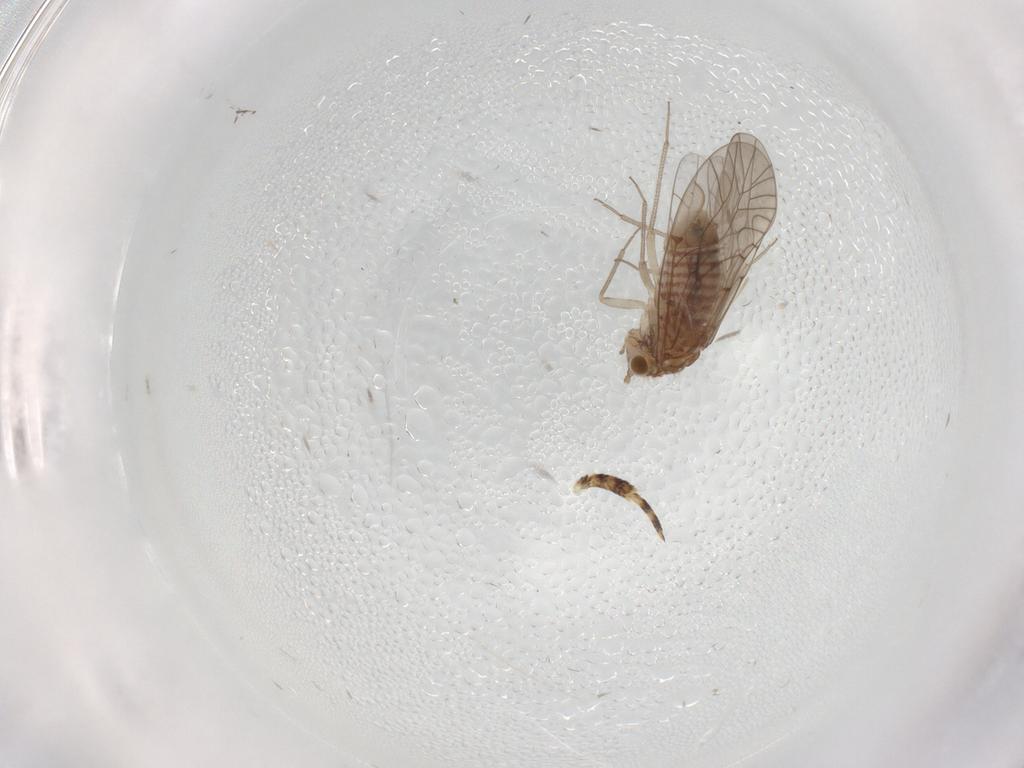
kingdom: Animalia
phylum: Arthropoda
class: Insecta
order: Psocodea
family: Lachesillidae
